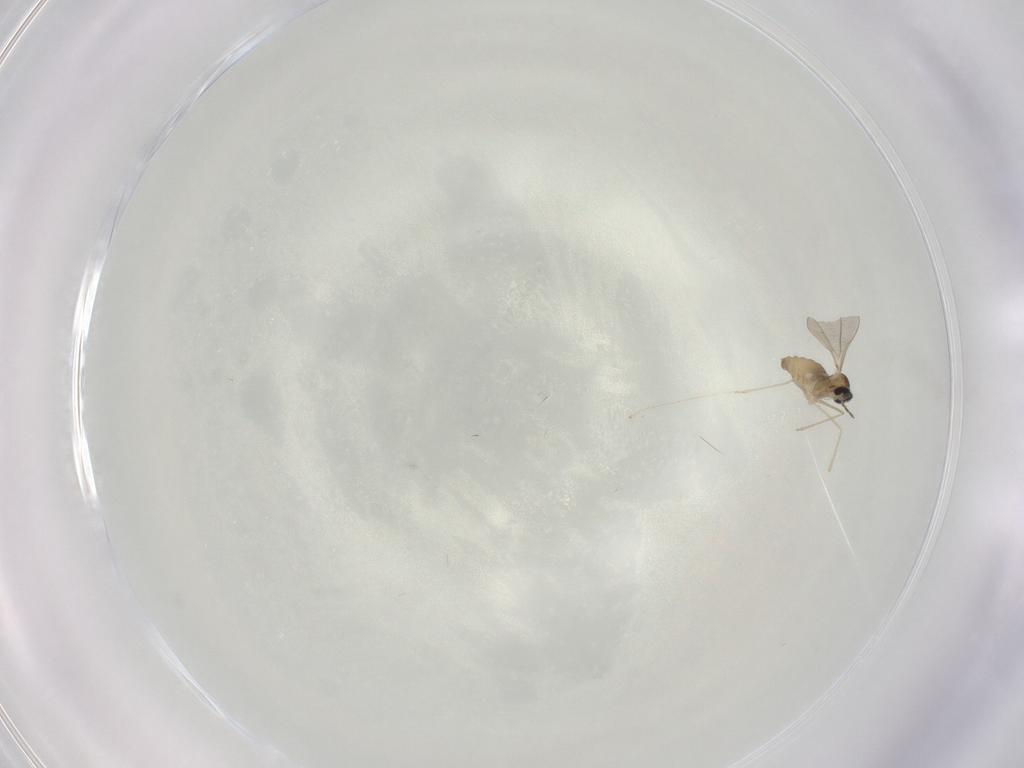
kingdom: Animalia
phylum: Arthropoda
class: Insecta
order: Diptera
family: Cecidomyiidae
